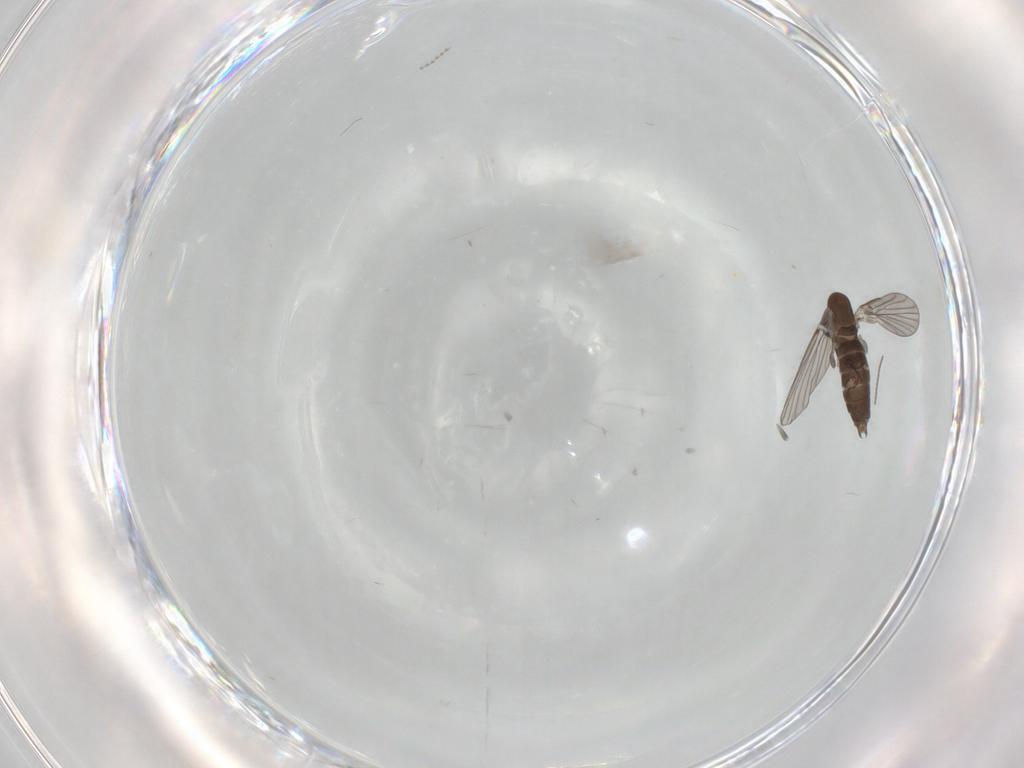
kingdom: Animalia
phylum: Arthropoda
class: Insecta
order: Diptera
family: Cecidomyiidae
